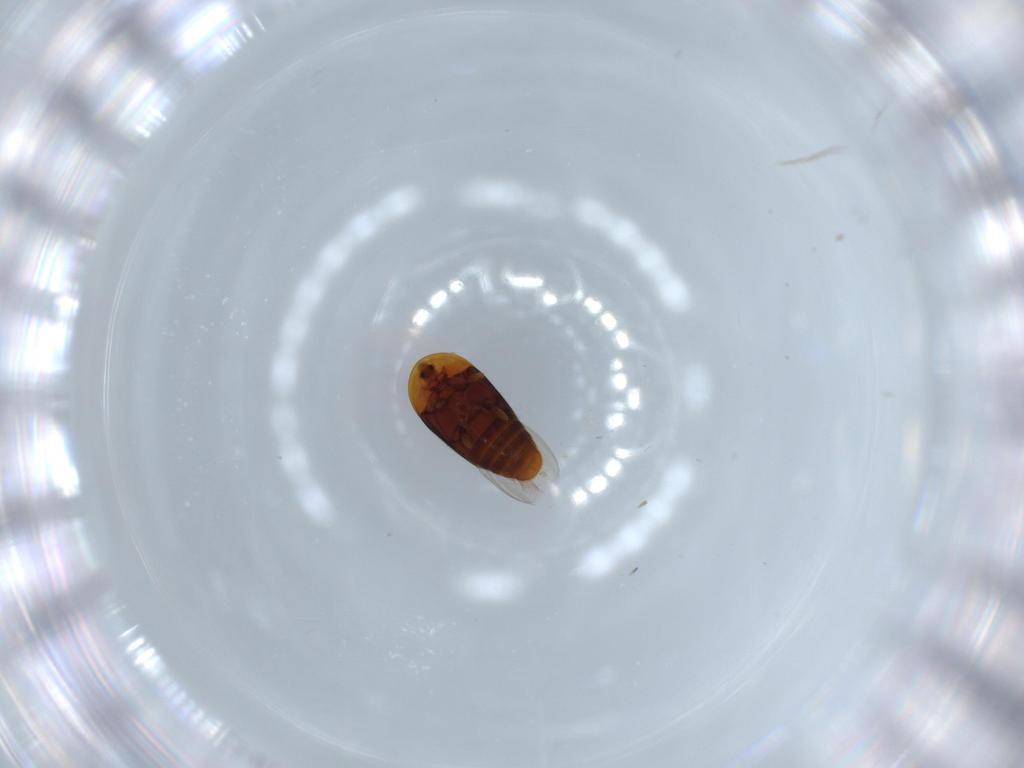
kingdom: Animalia
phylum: Arthropoda
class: Insecta
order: Coleoptera
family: Corylophidae
